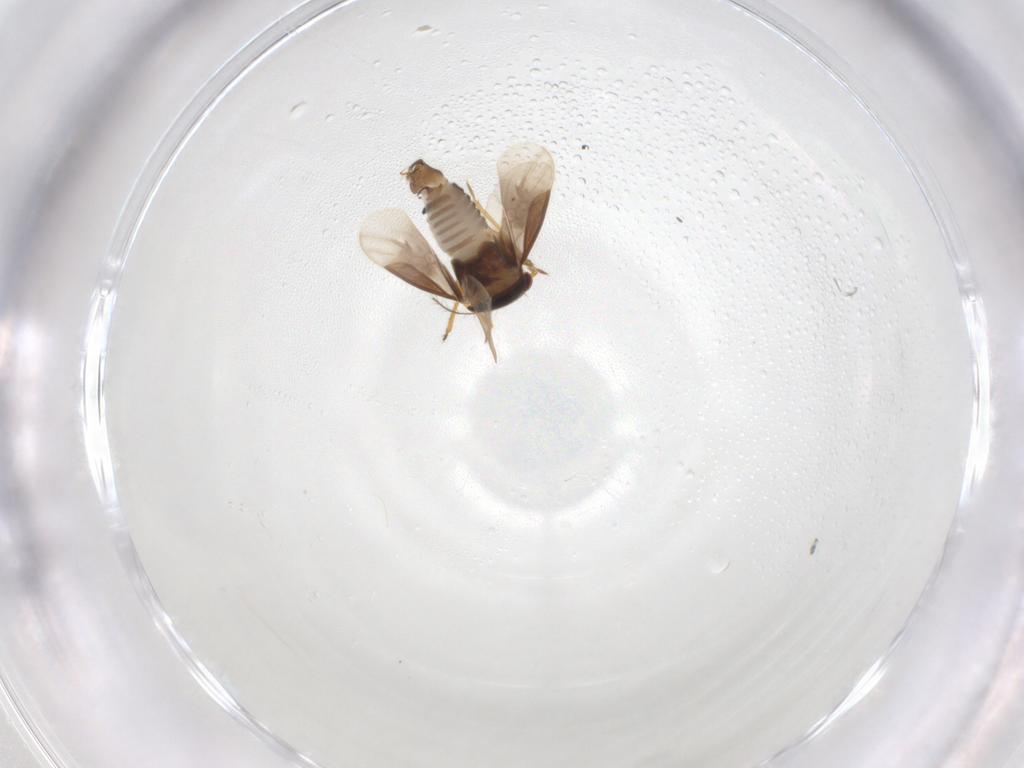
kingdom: Animalia
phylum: Arthropoda
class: Insecta
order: Hemiptera
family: Schizopteridae
